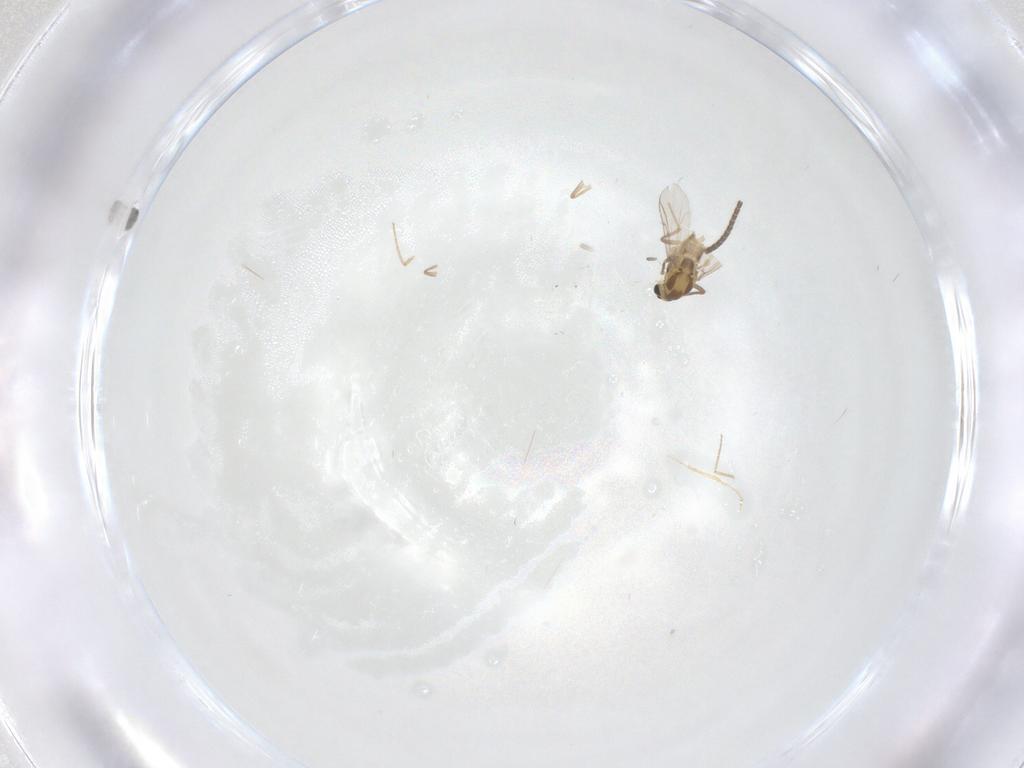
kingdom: Animalia
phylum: Arthropoda
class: Insecta
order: Diptera
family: Chironomidae
